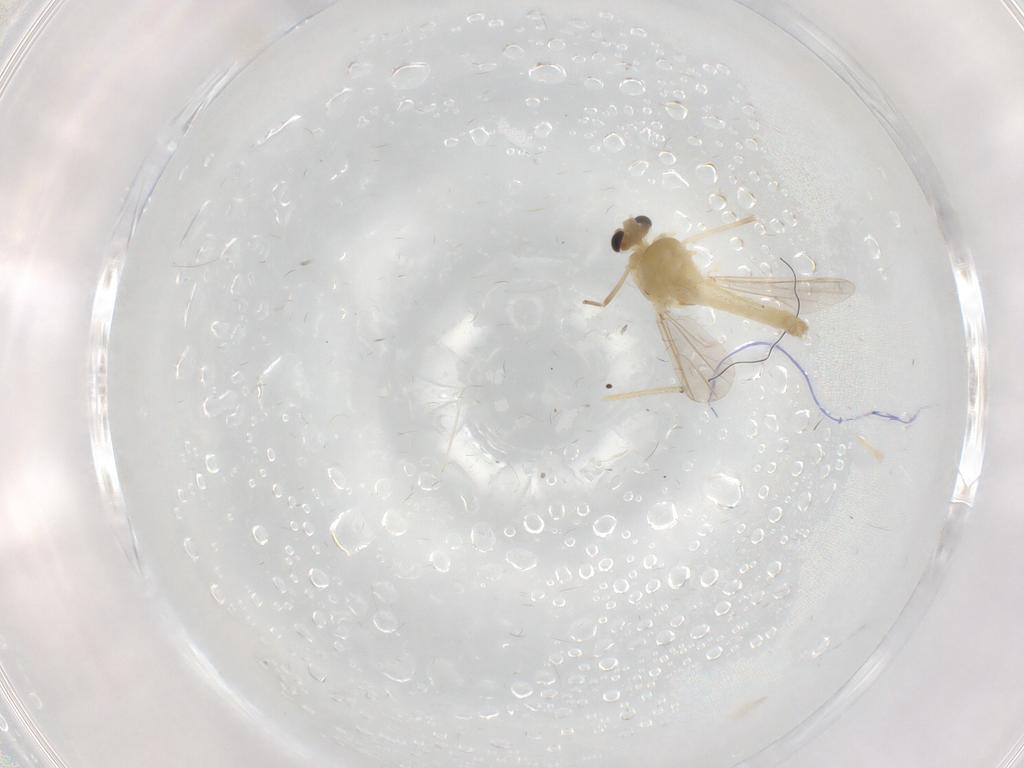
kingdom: Animalia
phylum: Arthropoda
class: Insecta
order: Diptera
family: Chironomidae
